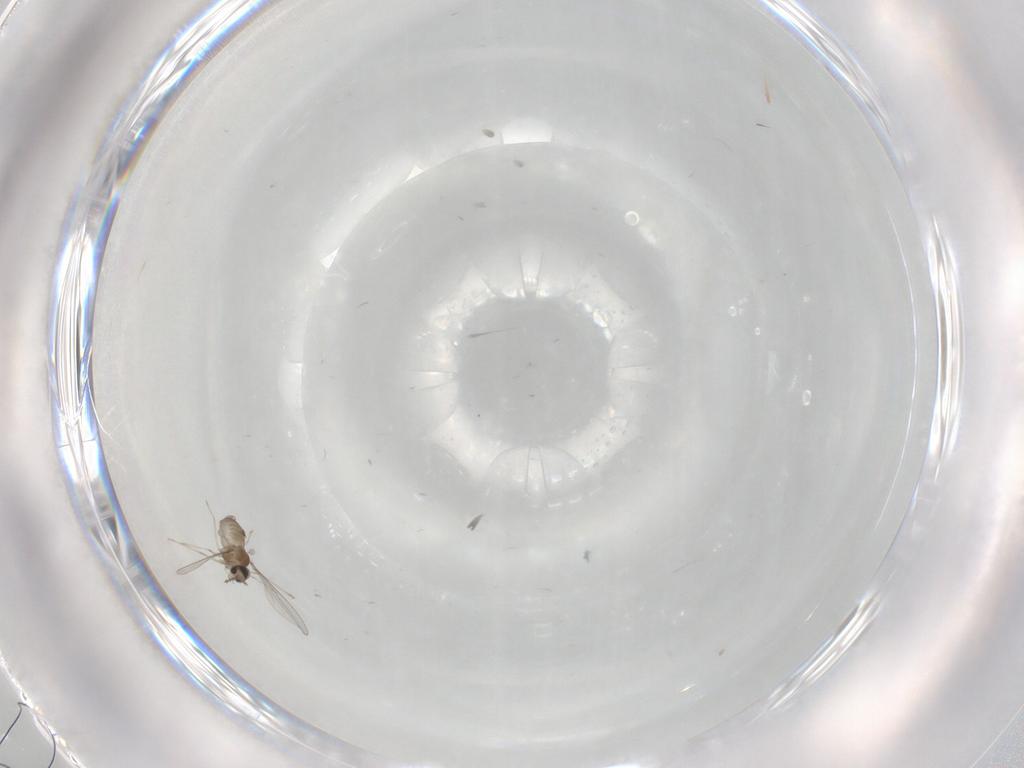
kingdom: Animalia
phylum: Arthropoda
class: Insecta
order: Diptera
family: Cecidomyiidae
